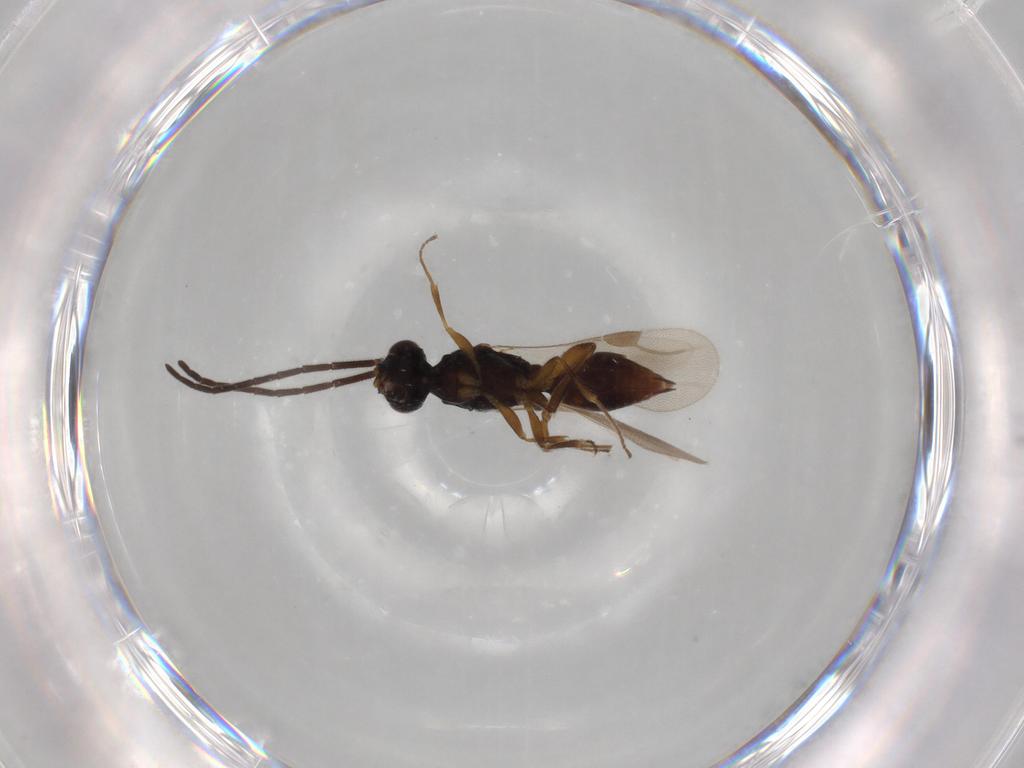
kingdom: Animalia
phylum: Arthropoda
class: Insecta
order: Hymenoptera
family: Megaspilidae
